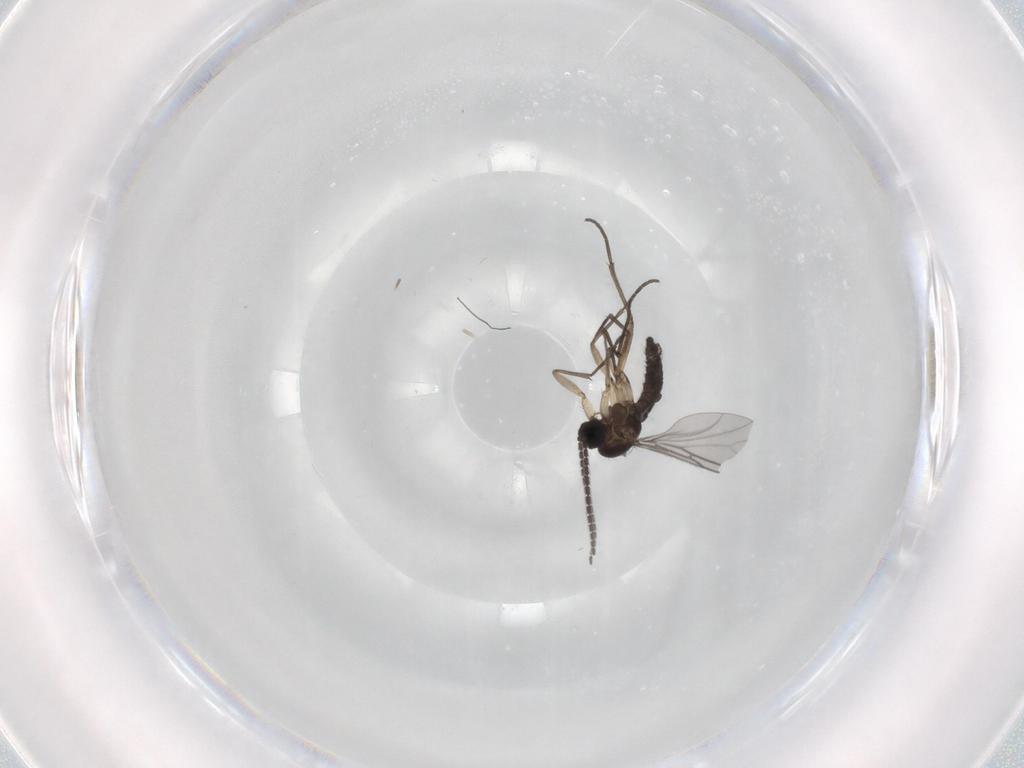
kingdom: Animalia
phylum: Arthropoda
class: Insecta
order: Diptera
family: Sciaridae
